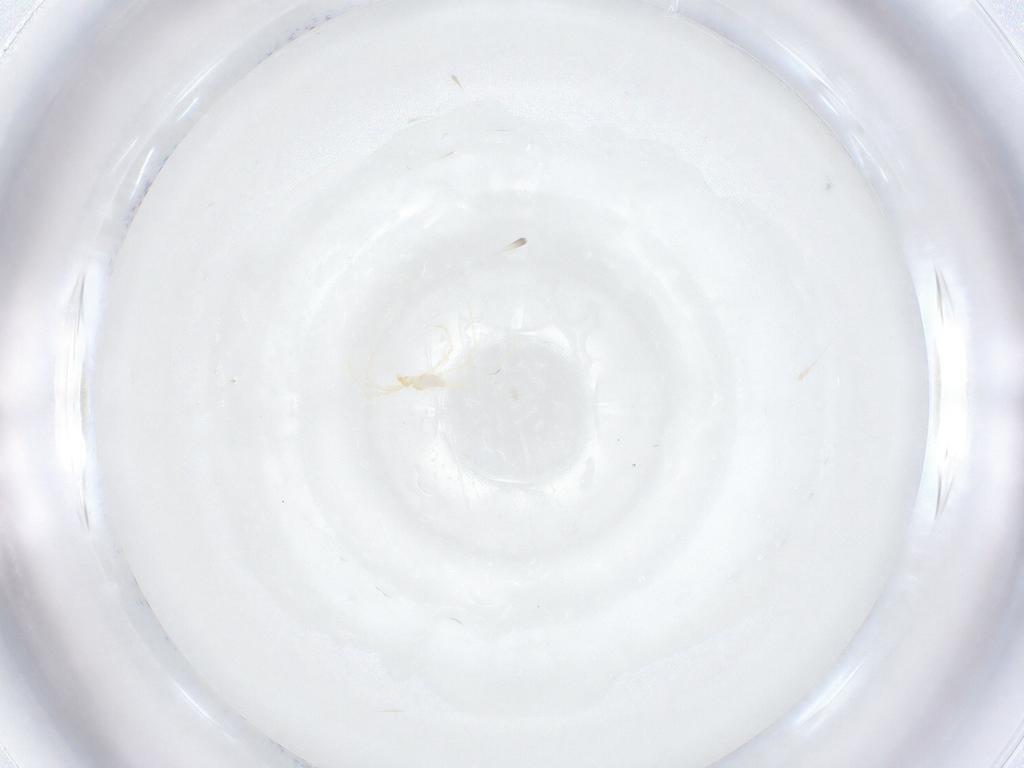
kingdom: Animalia
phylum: Arthropoda
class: Arachnida
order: Trombidiformes
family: Erythraeidae
